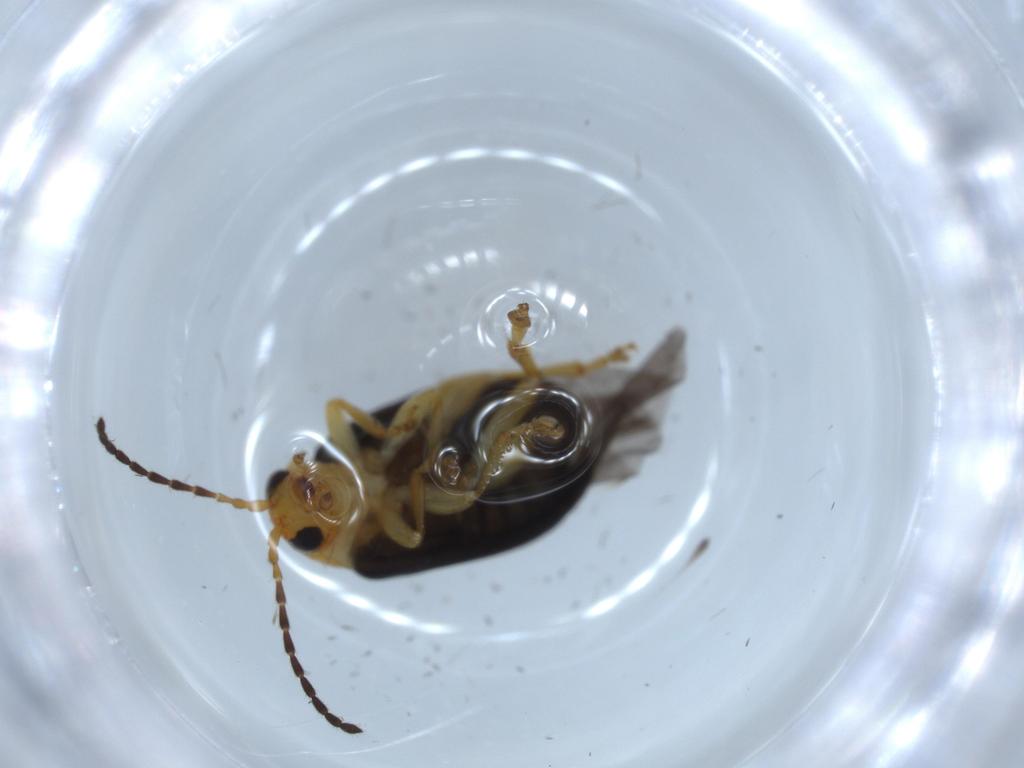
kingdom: Animalia
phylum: Arthropoda
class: Insecta
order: Coleoptera
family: Chrysomelidae
